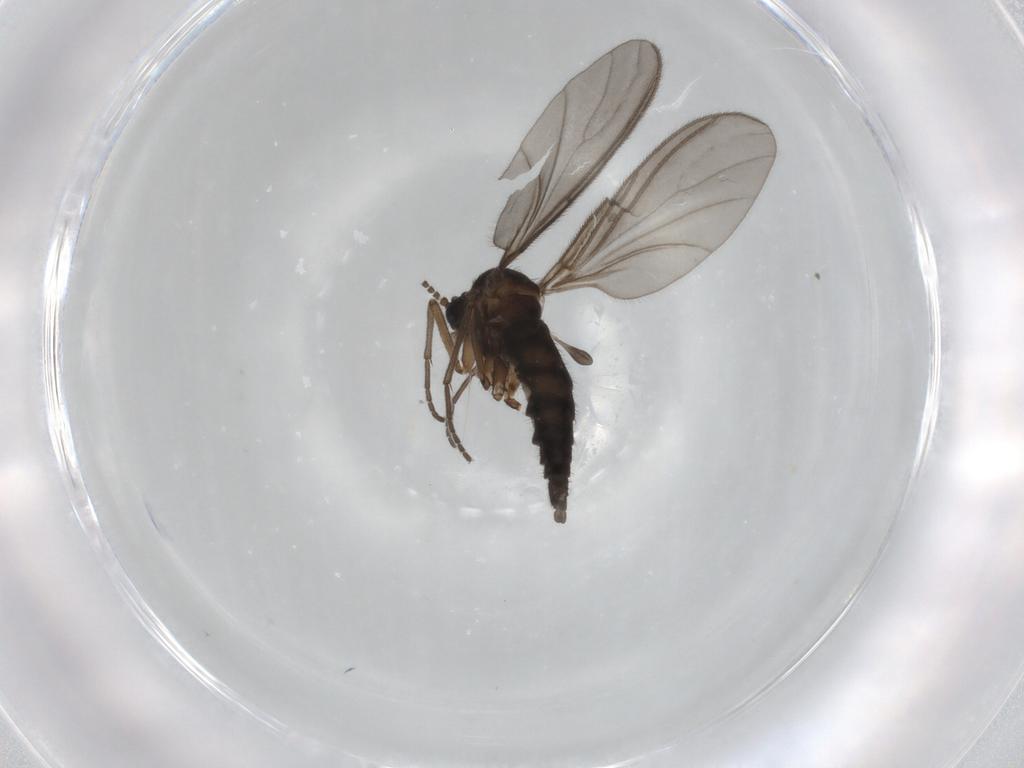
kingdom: Animalia
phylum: Arthropoda
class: Insecta
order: Diptera
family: Sciaridae
